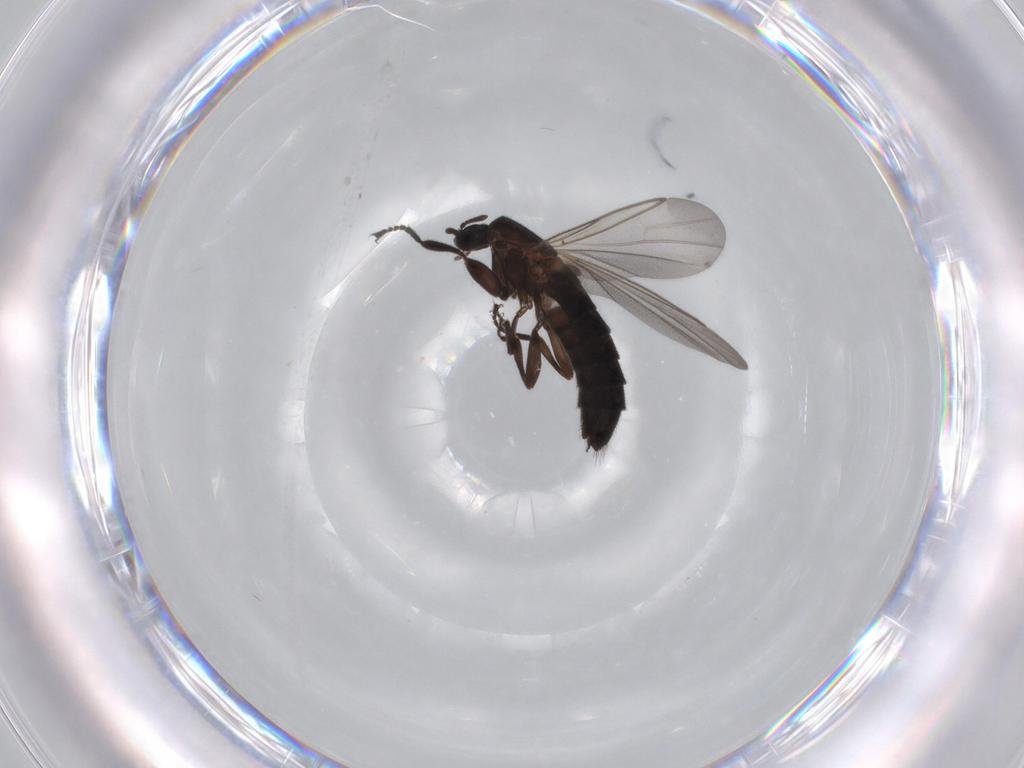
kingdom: Animalia
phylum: Arthropoda
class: Insecta
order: Diptera
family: Scatopsidae
